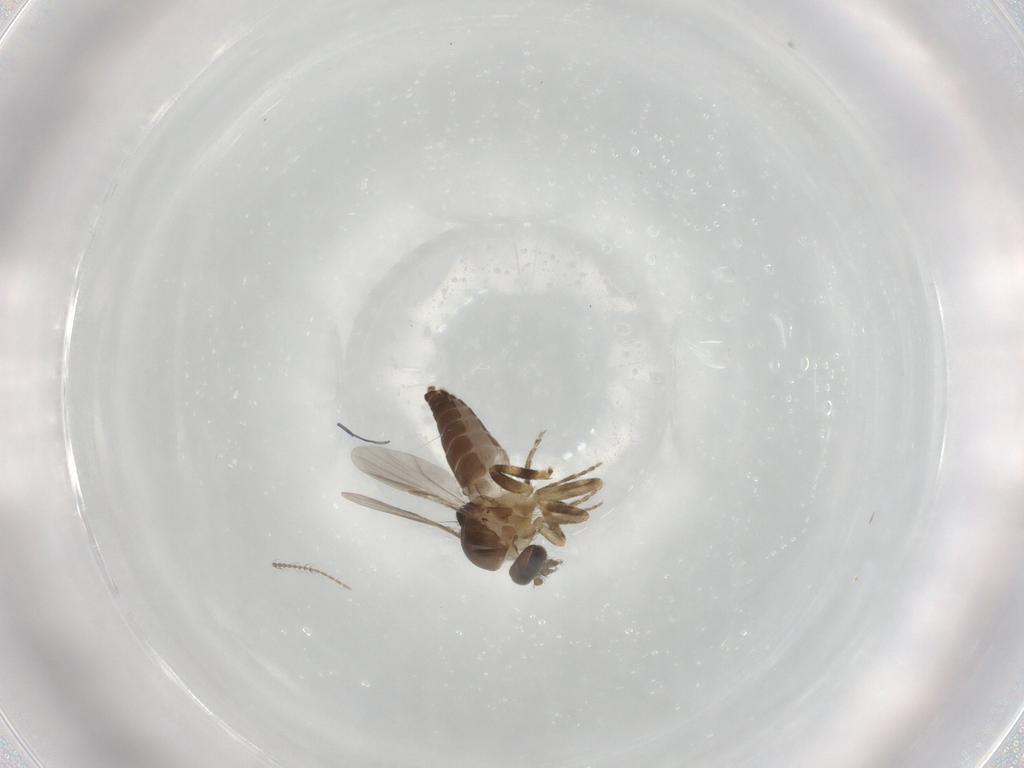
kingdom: Animalia
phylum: Arthropoda
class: Insecta
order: Diptera
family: Ceratopogonidae
